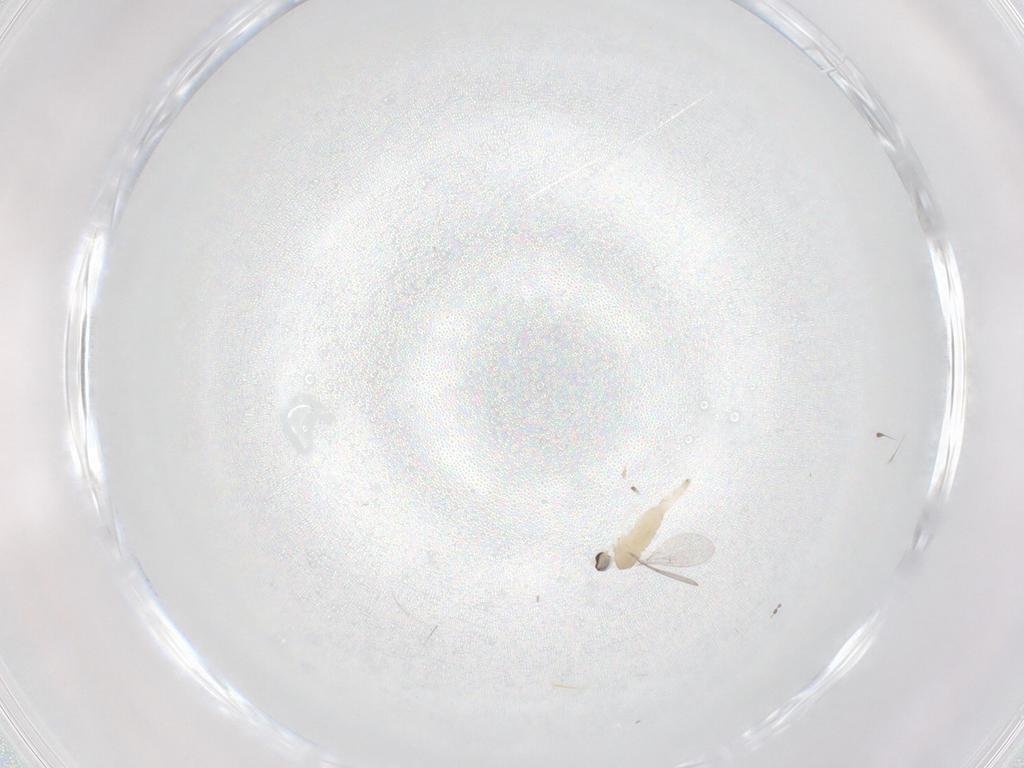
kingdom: Animalia
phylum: Arthropoda
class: Insecta
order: Diptera
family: Cecidomyiidae
